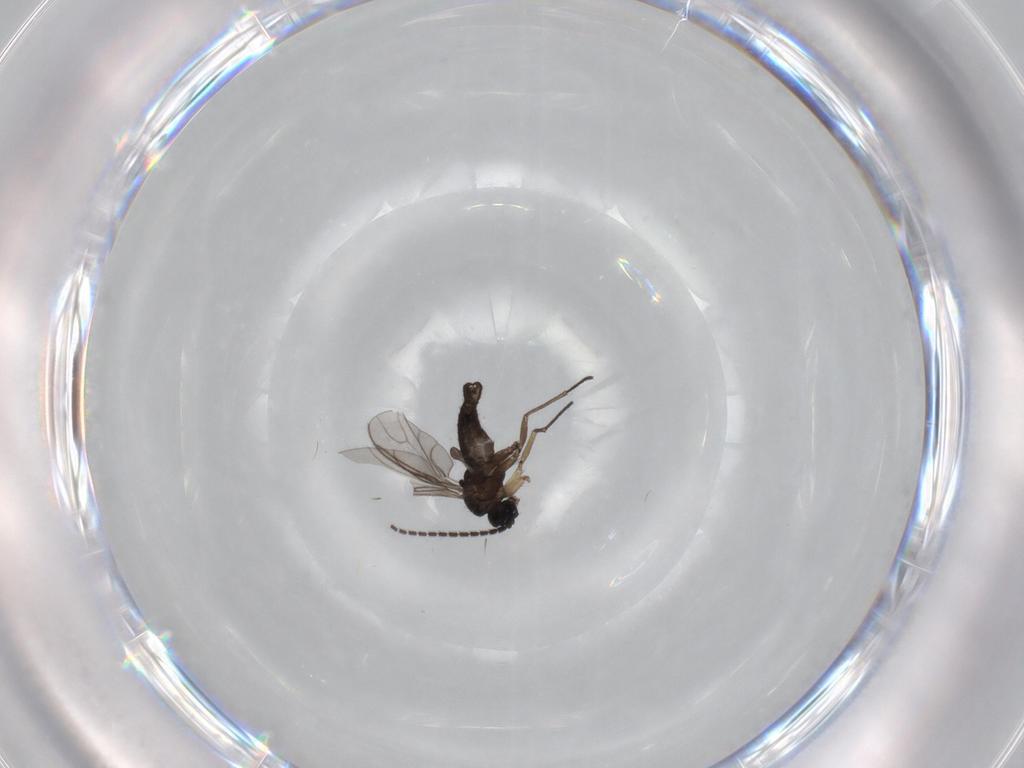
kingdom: Animalia
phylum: Arthropoda
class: Insecta
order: Diptera
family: Sciaridae
